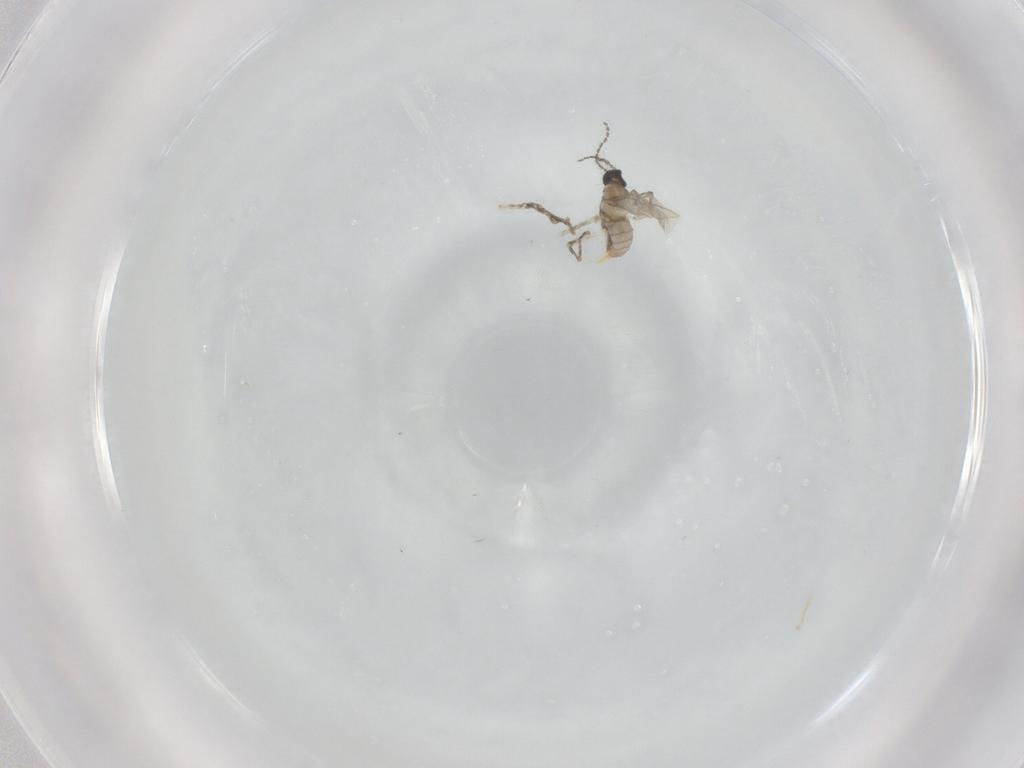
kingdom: Animalia
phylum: Arthropoda
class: Insecta
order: Diptera
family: Cecidomyiidae
